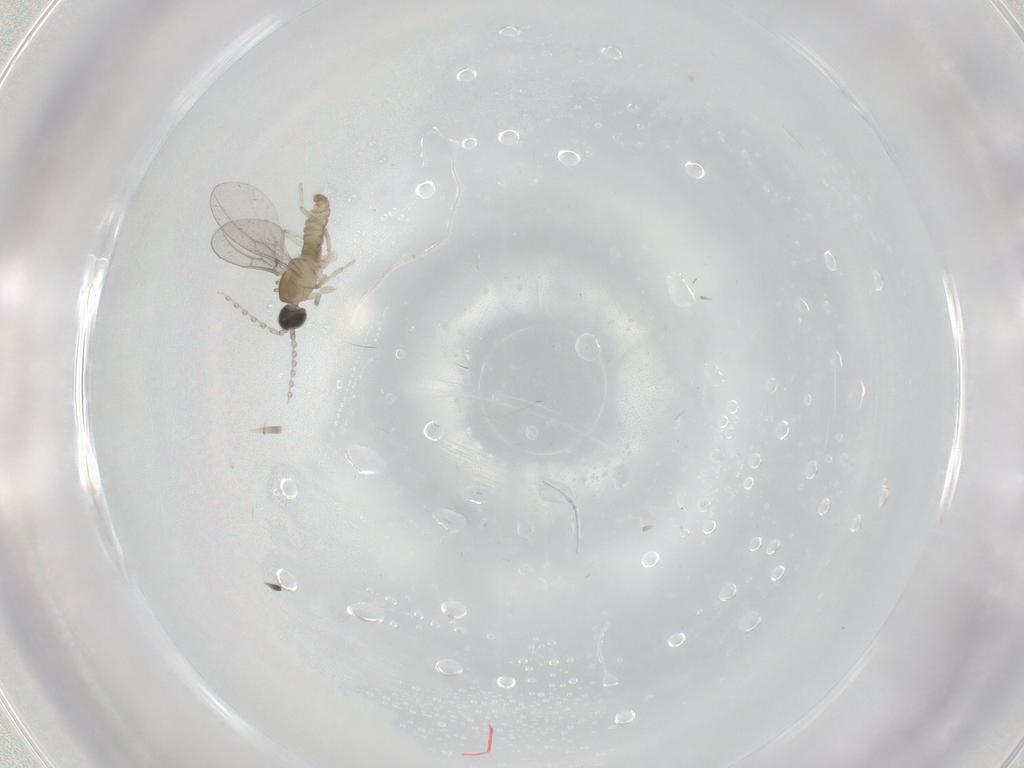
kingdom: Animalia
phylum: Arthropoda
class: Insecta
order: Diptera
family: Cecidomyiidae
